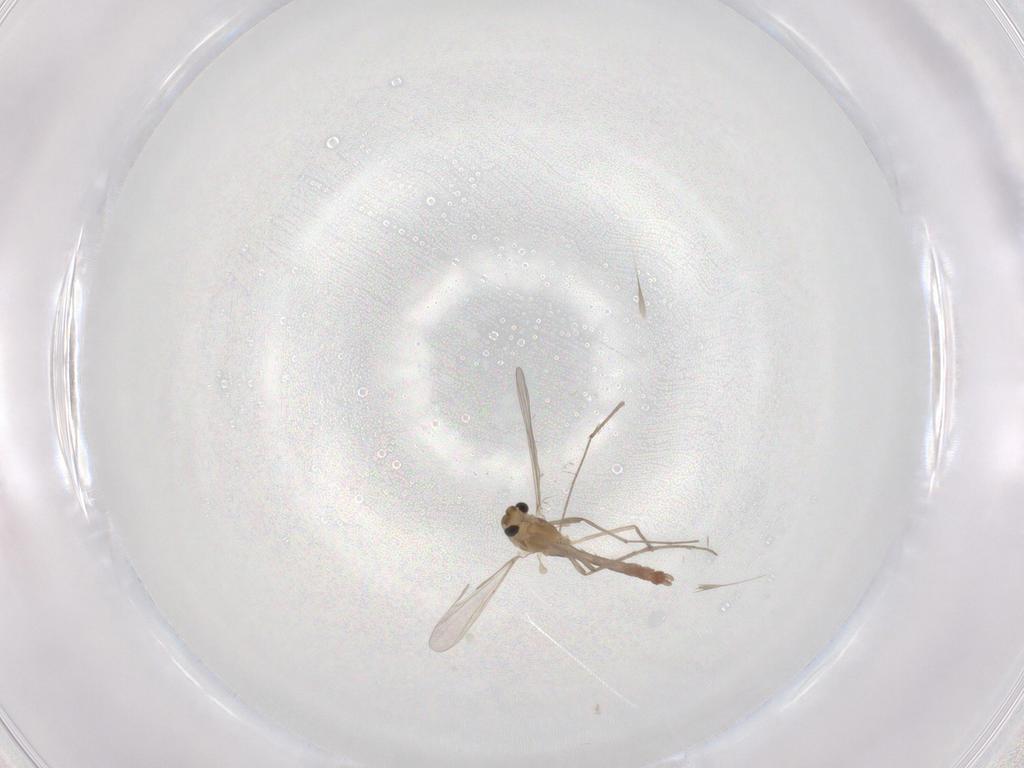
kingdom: Animalia
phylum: Arthropoda
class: Insecta
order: Diptera
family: Chironomidae
